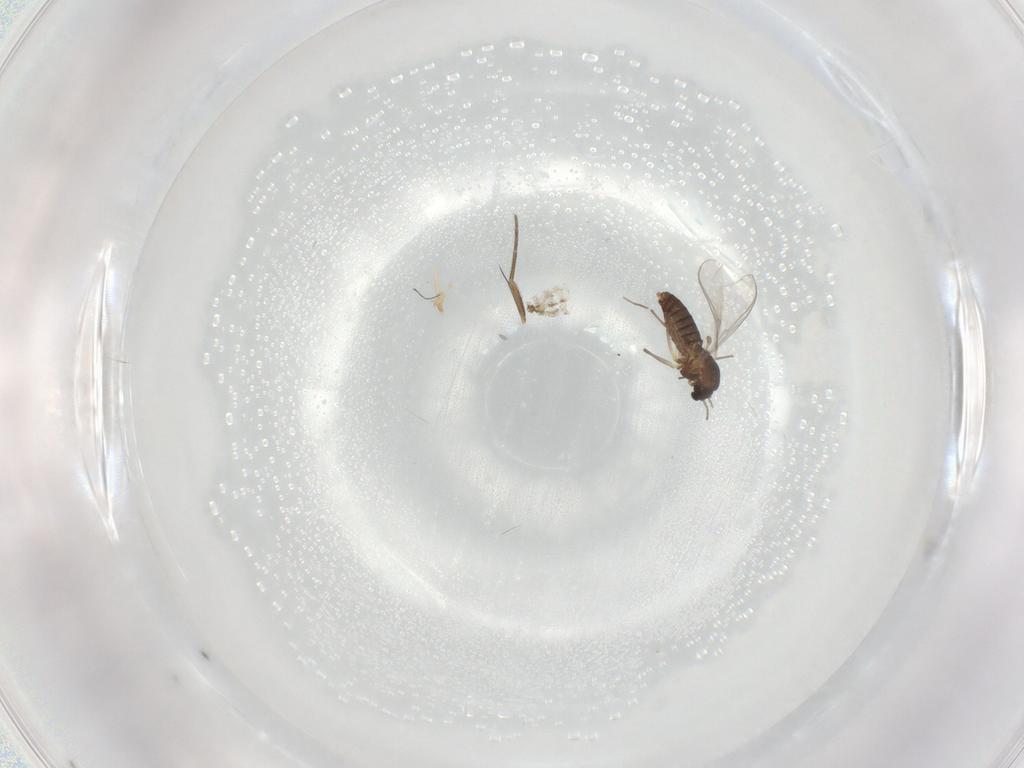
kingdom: Animalia
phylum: Arthropoda
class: Insecta
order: Diptera
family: Chironomidae
